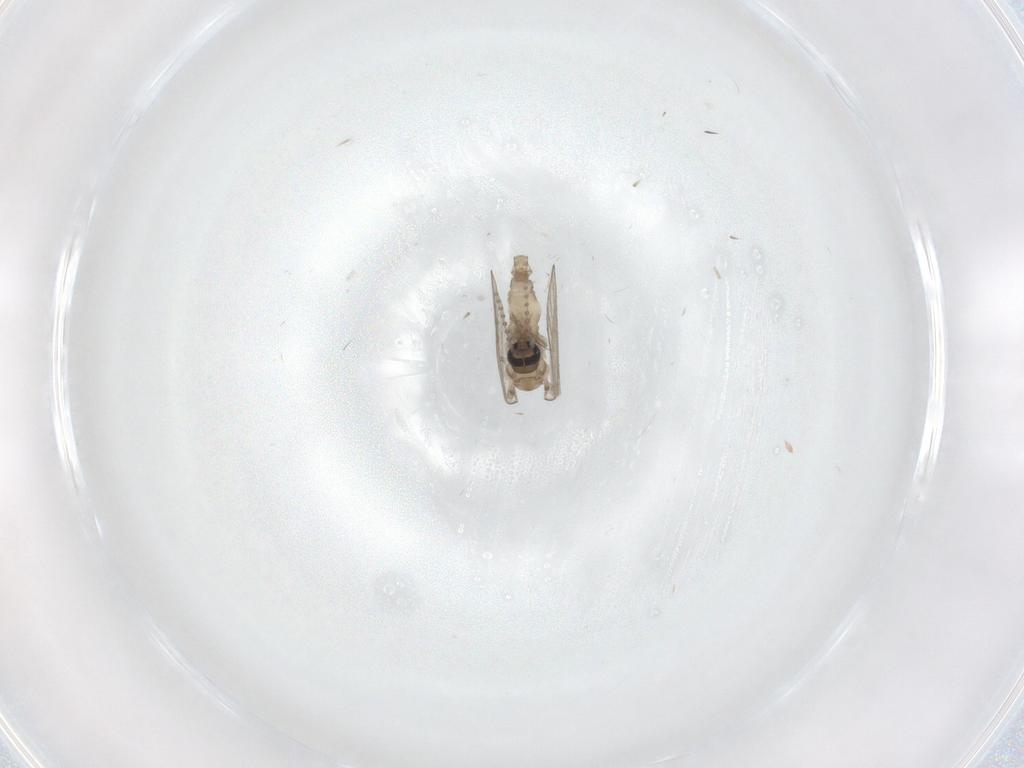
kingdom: Animalia
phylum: Arthropoda
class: Insecta
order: Diptera
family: Psychodidae
